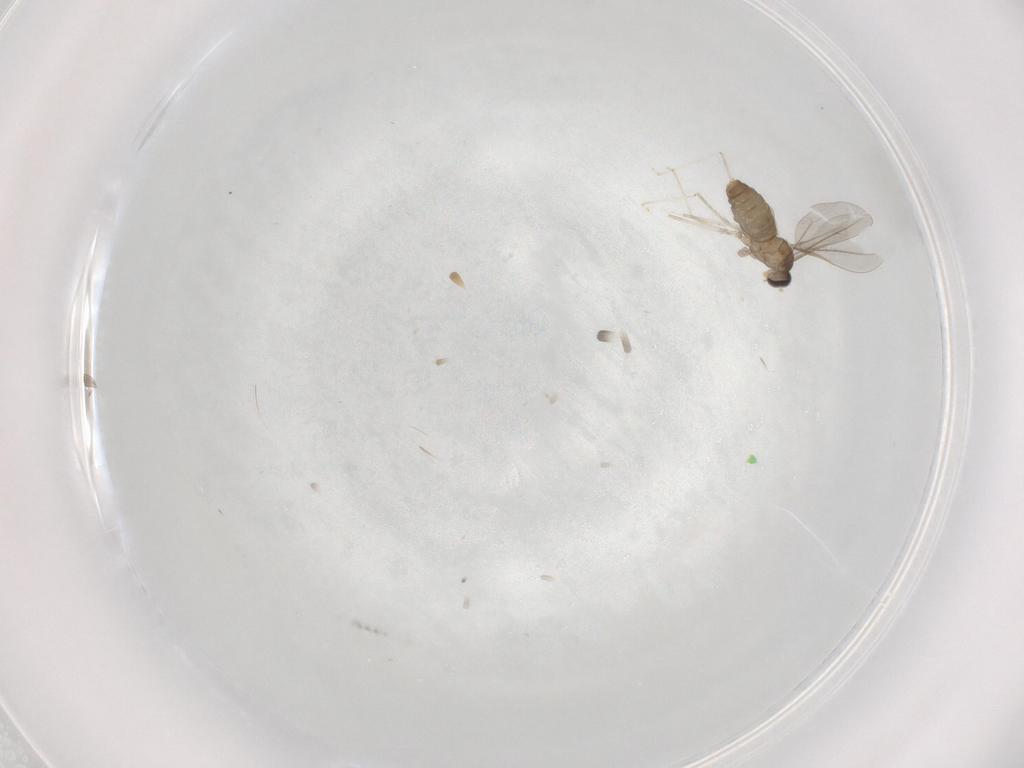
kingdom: Animalia
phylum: Arthropoda
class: Insecta
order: Diptera
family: Cecidomyiidae
